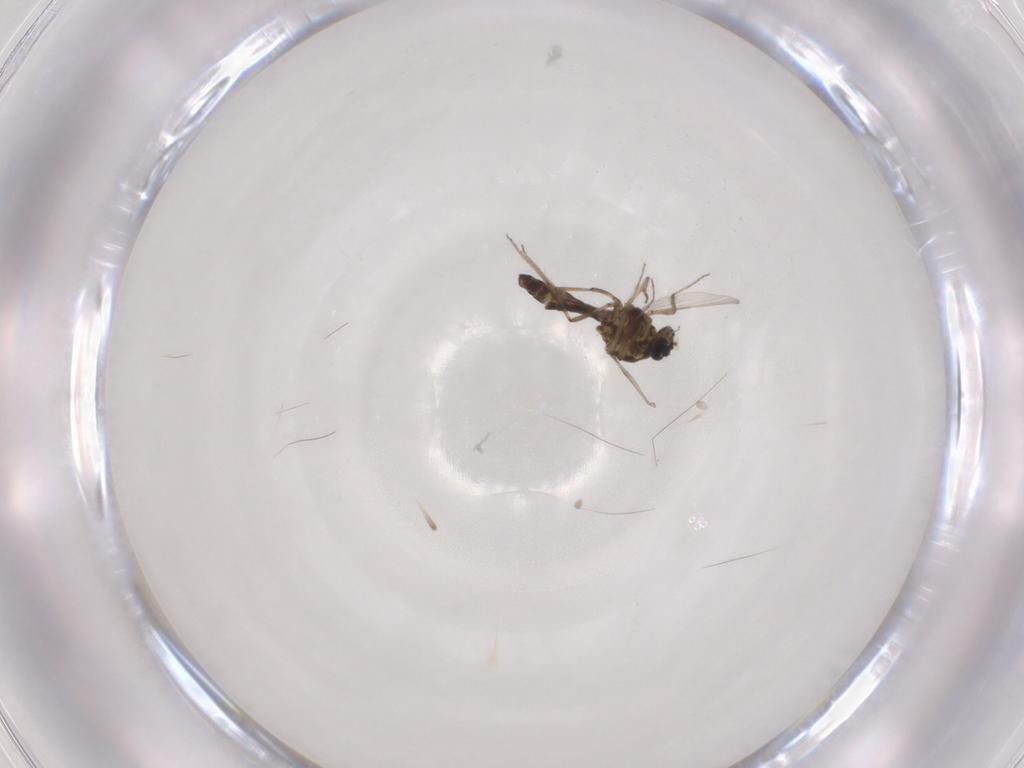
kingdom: Animalia
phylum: Arthropoda
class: Insecta
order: Diptera
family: Ceratopogonidae
